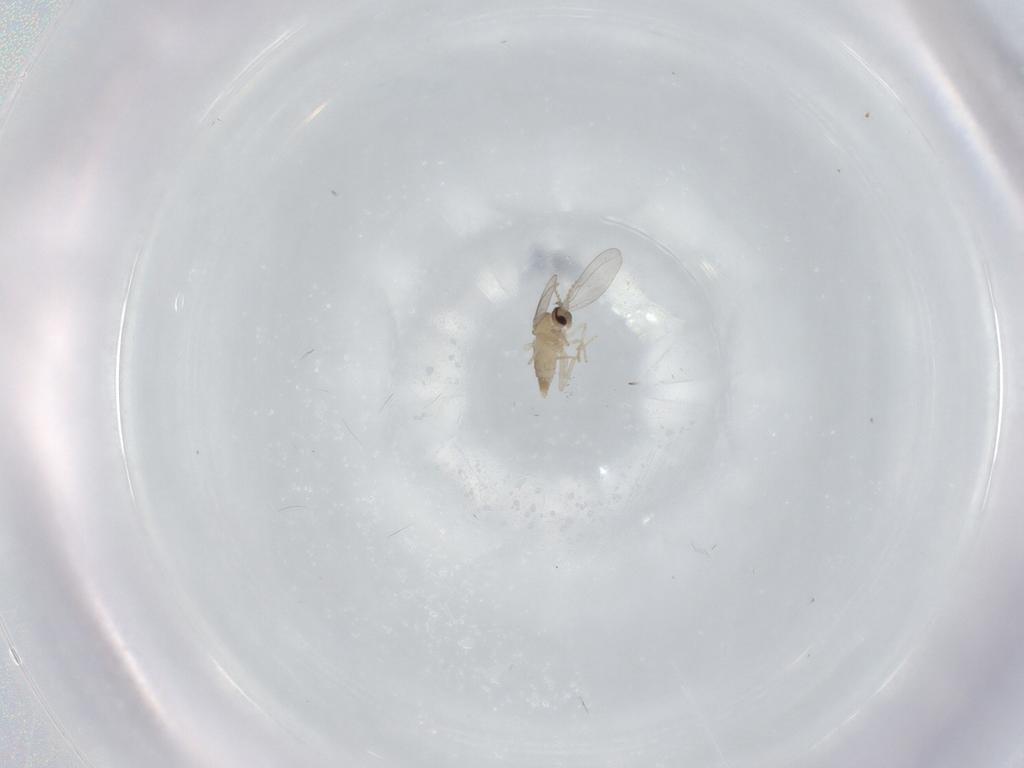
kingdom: Animalia
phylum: Arthropoda
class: Insecta
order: Diptera
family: Cecidomyiidae
